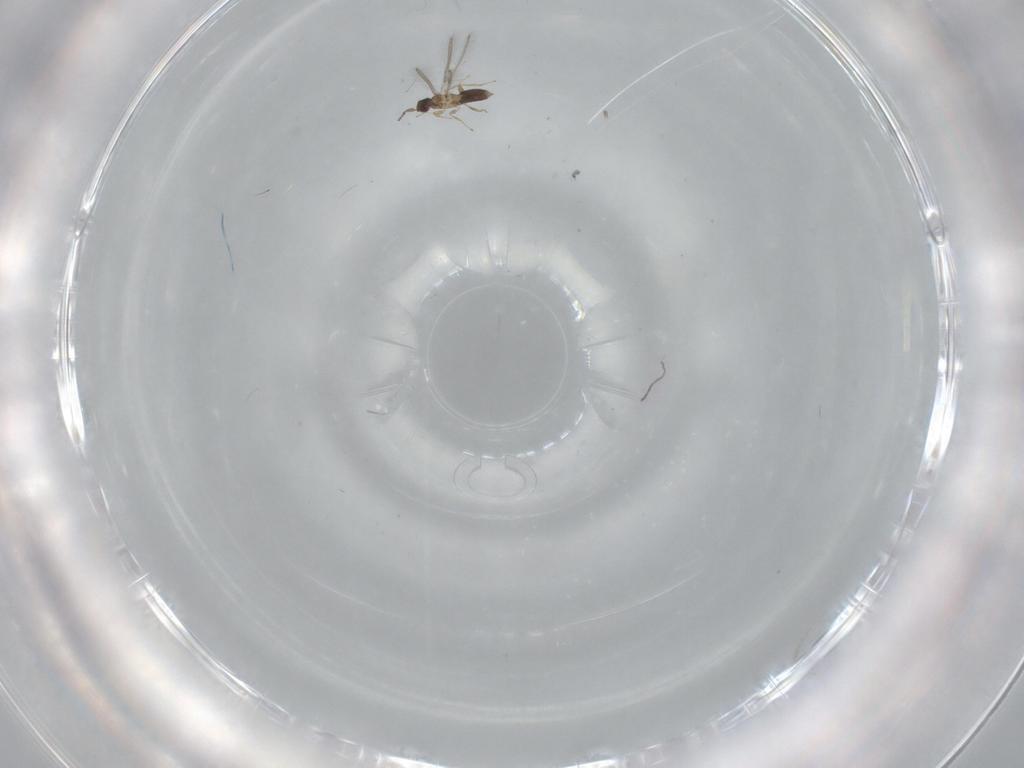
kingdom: Animalia
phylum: Arthropoda
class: Insecta
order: Hymenoptera
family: Mymaridae
